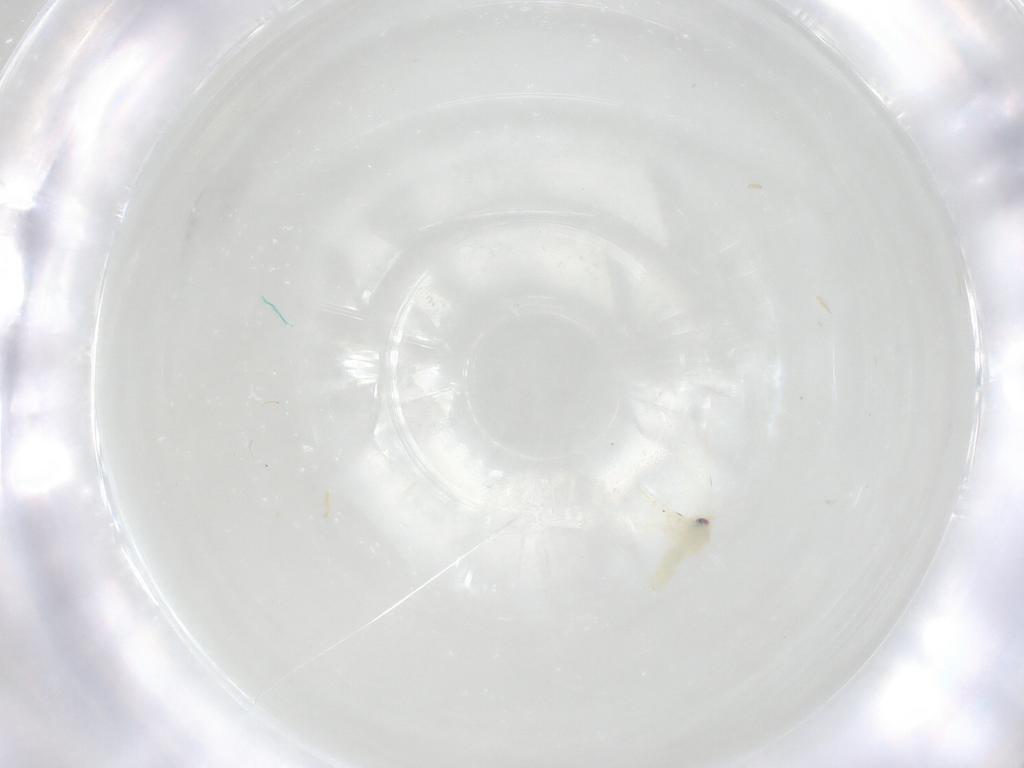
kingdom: Animalia
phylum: Arthropoda
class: Insecta
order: Hemiptera
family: Aleyrodidae
